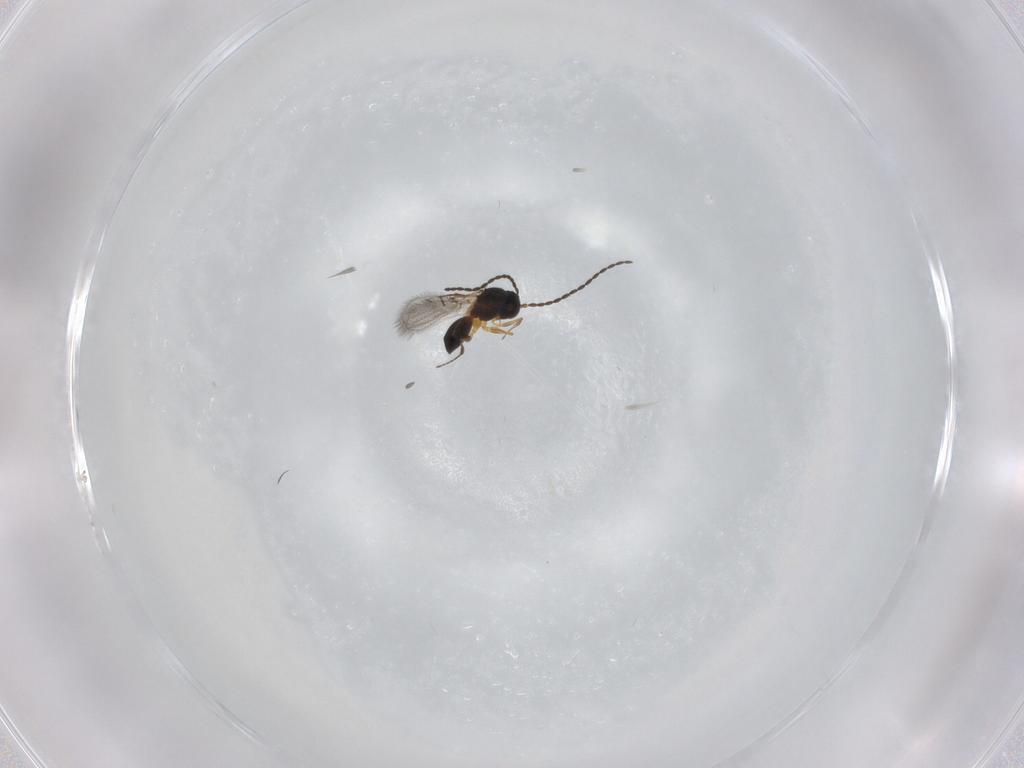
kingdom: Animalia
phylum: Arthropoda
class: Insecta
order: Hymenoptera
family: Figitidae
